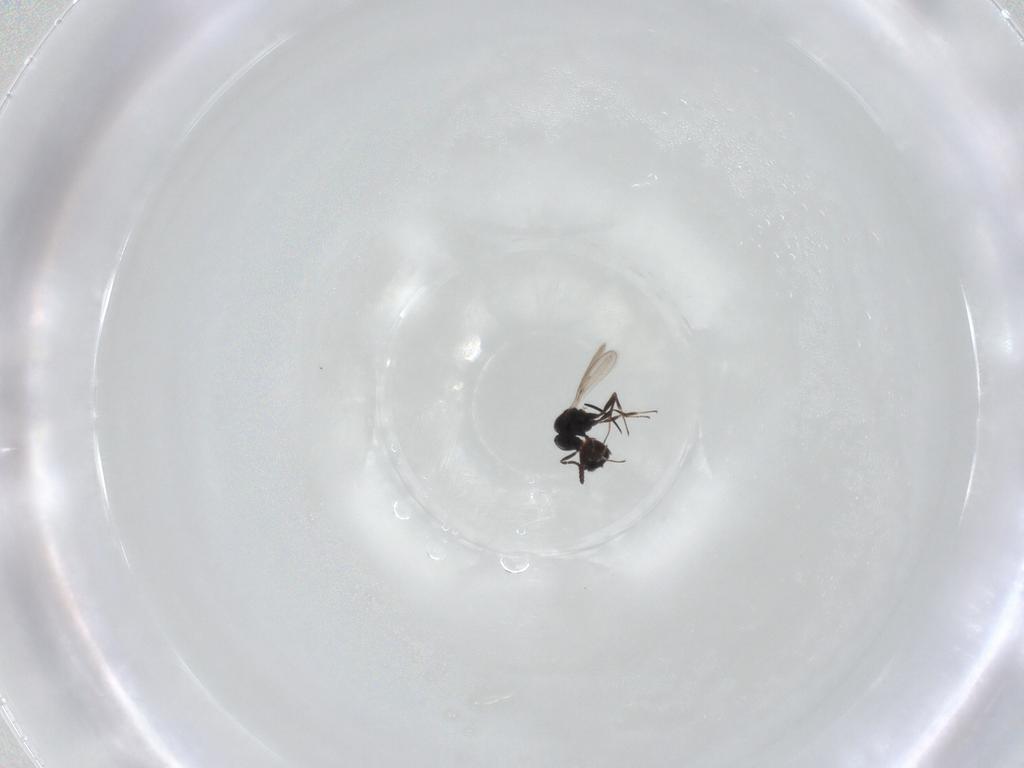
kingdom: Animalia
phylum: Arthropoda
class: Insecta
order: Hymenoptera
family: Scelionidae
